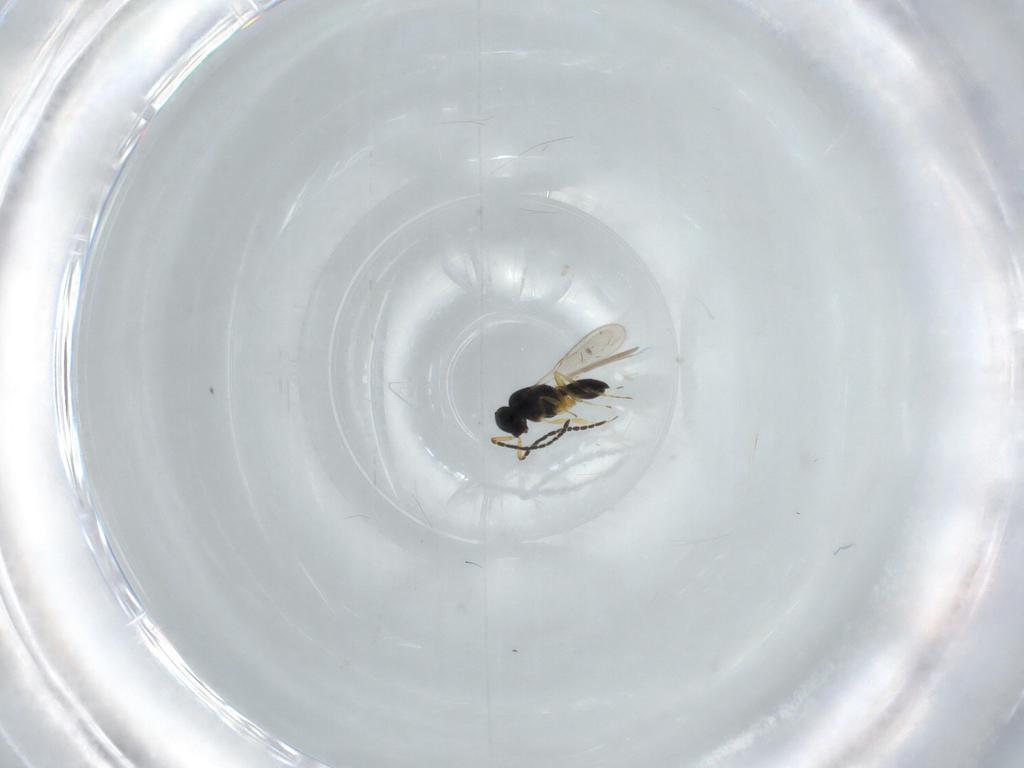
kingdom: Animalia
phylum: Arthropoda
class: Insecta
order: Hymenoptera
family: Scelionidae
